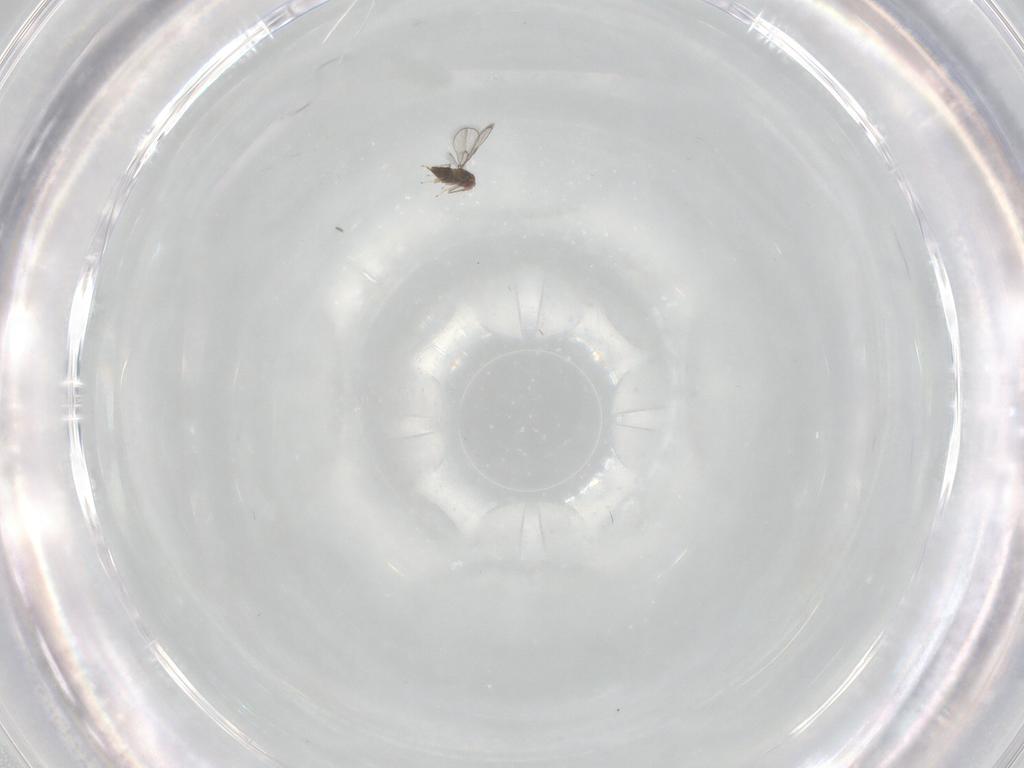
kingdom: Animalia
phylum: Arthropoda
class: Insecta
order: Hymenoptera
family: Trichogrammatidae
